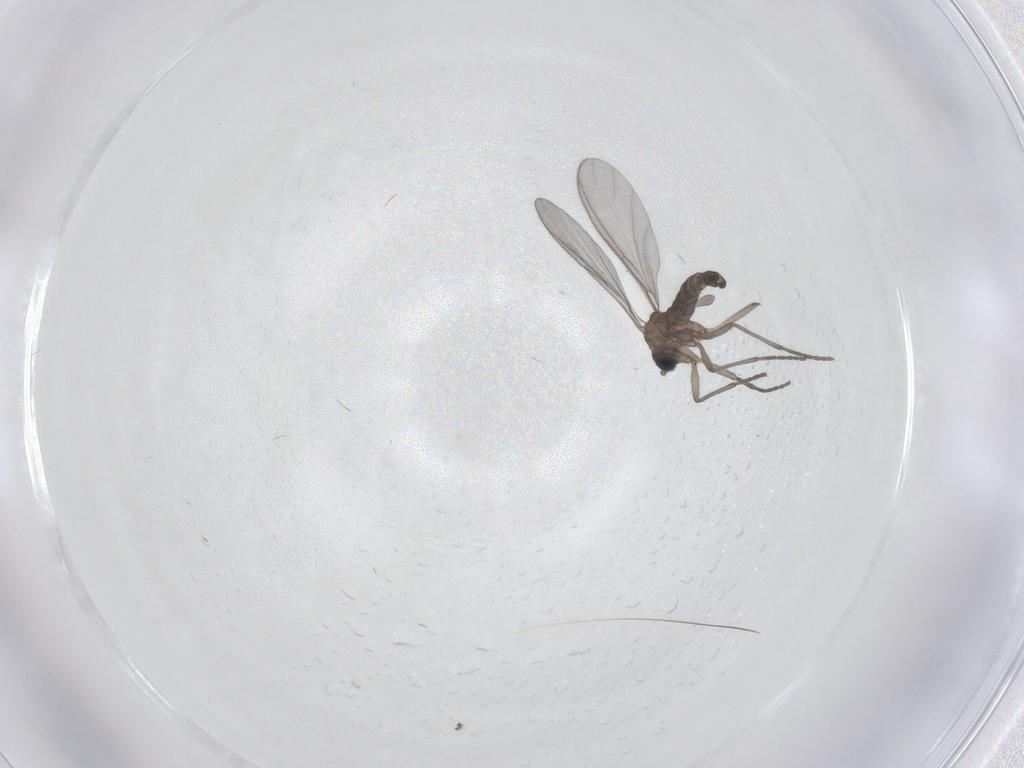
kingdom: Animalia
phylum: Arthropoda
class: Insecta
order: Diptera
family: Sciaridae
